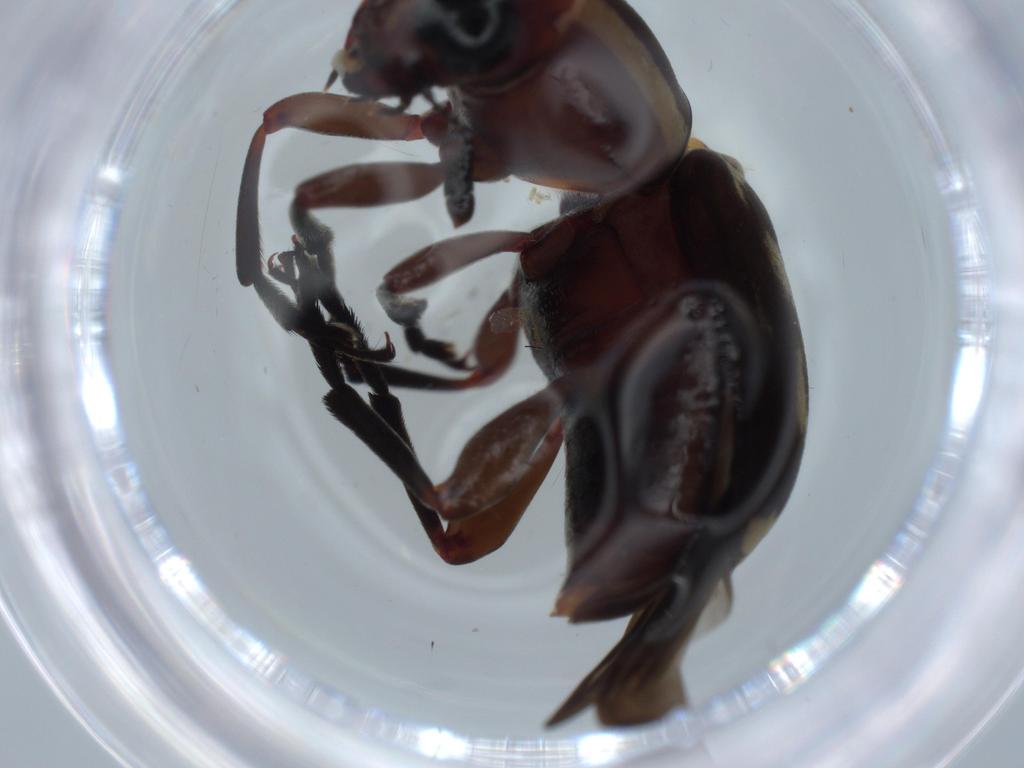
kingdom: Animalia
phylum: Arthropoda
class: Insecta
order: Coleoptera
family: Anthribidae
